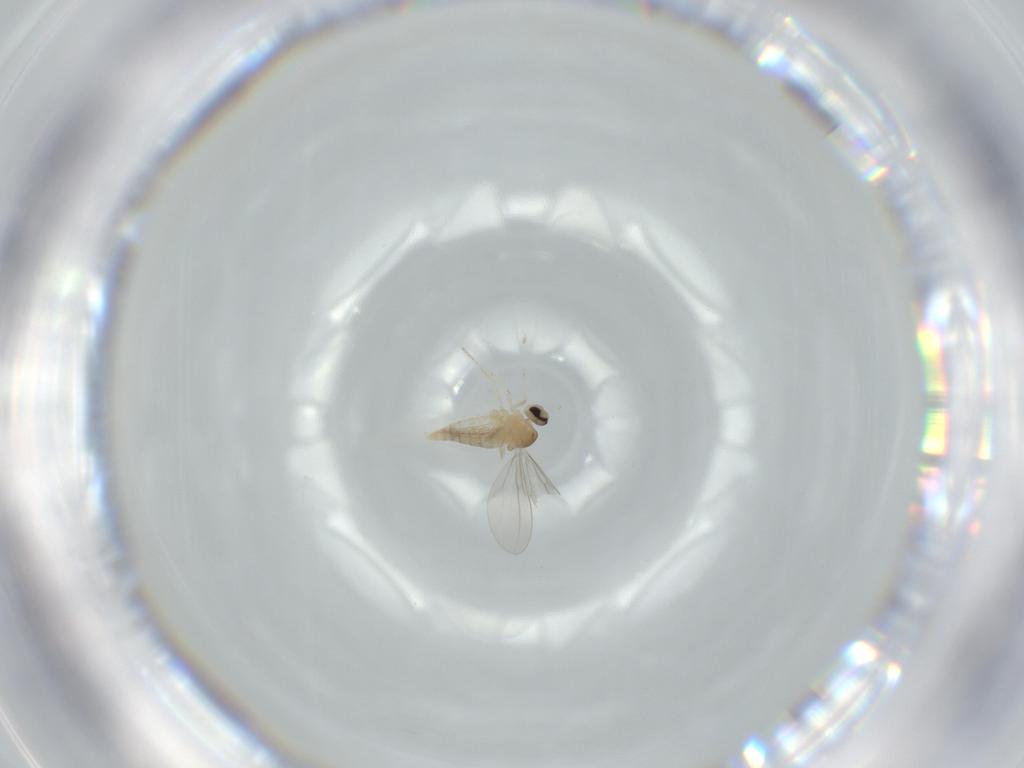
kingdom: Animalia
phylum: Arthropoda
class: Insecta
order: Diptera
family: Cecidomyiidae
